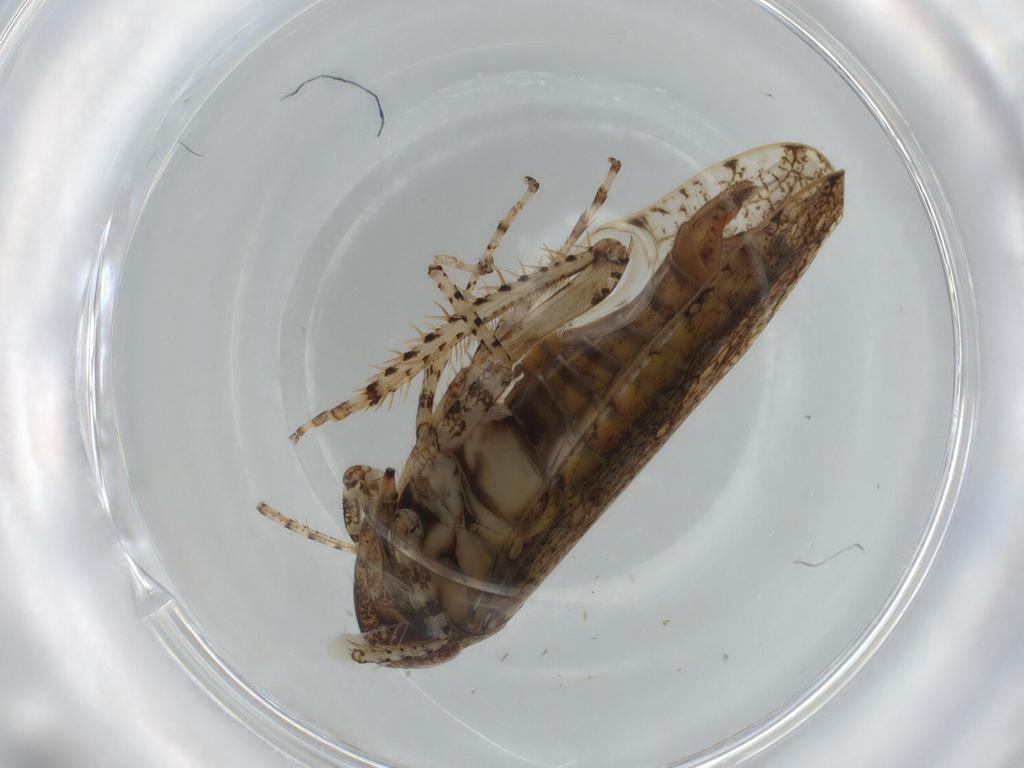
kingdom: Animalia
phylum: Arthropoda
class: Insecta
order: Hemiptera
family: Cicadellidae
